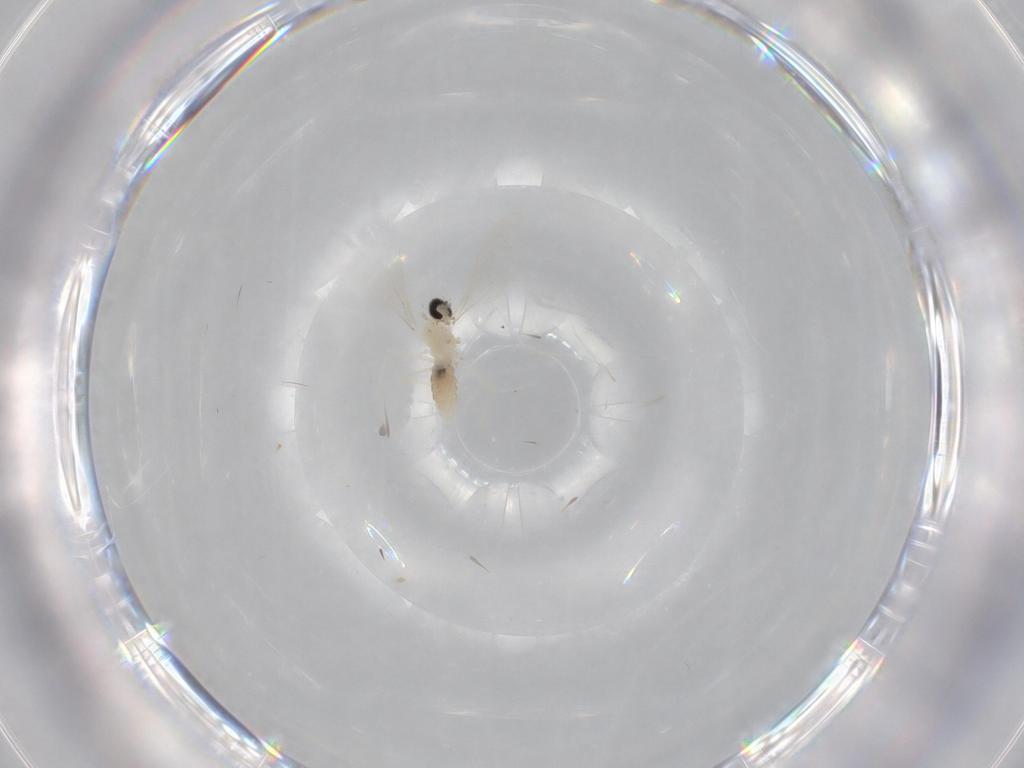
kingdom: Animalia
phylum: Arthropoda
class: Insecta
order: Diptera
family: Cecidomyiidae
